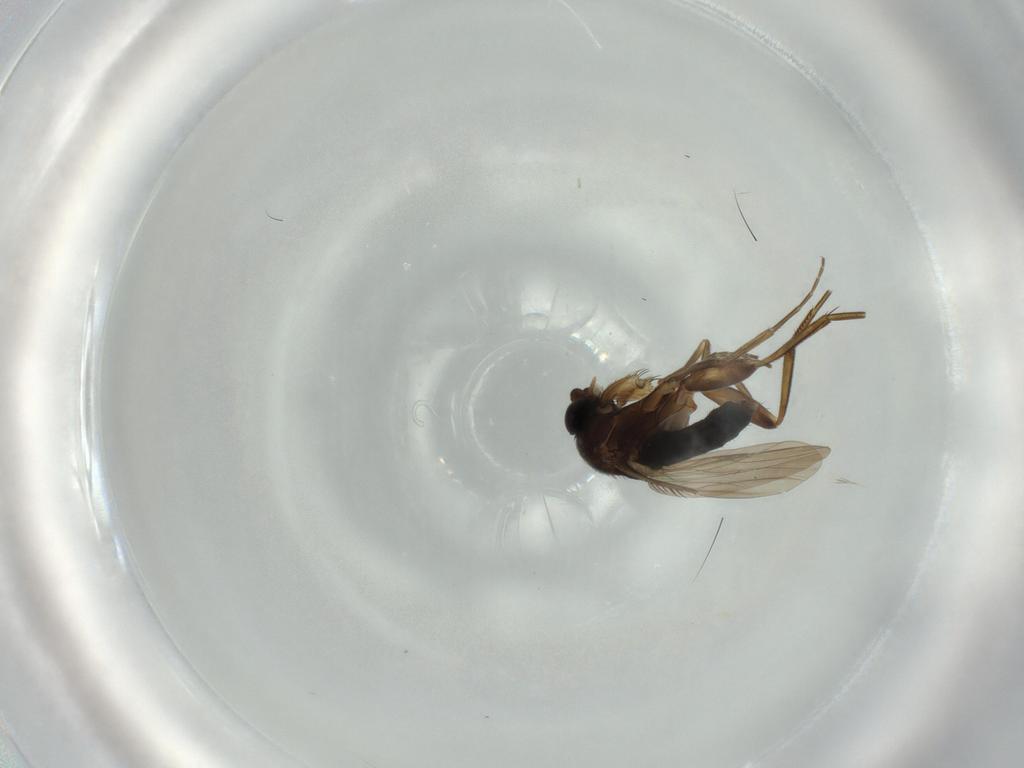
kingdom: Animalia
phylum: Arthropoda
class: Insecta
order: Diptera
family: Phoridae
